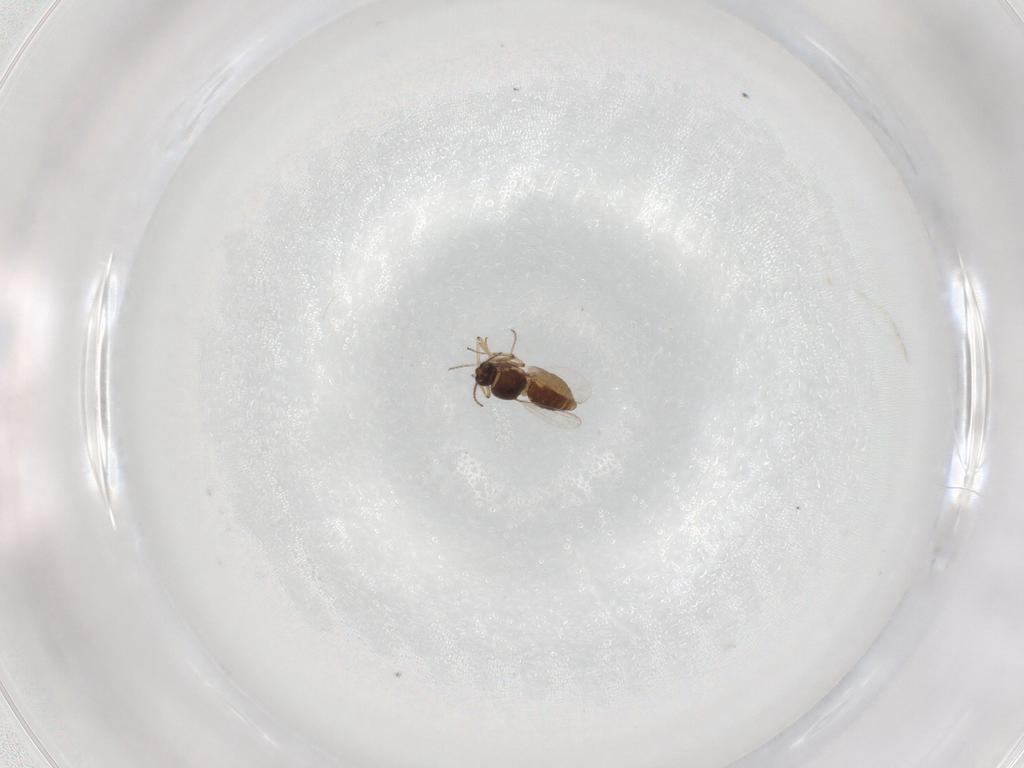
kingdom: Animalia
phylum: Arthropoda
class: Insecta
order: Diptera
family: Ceratopogonidae
